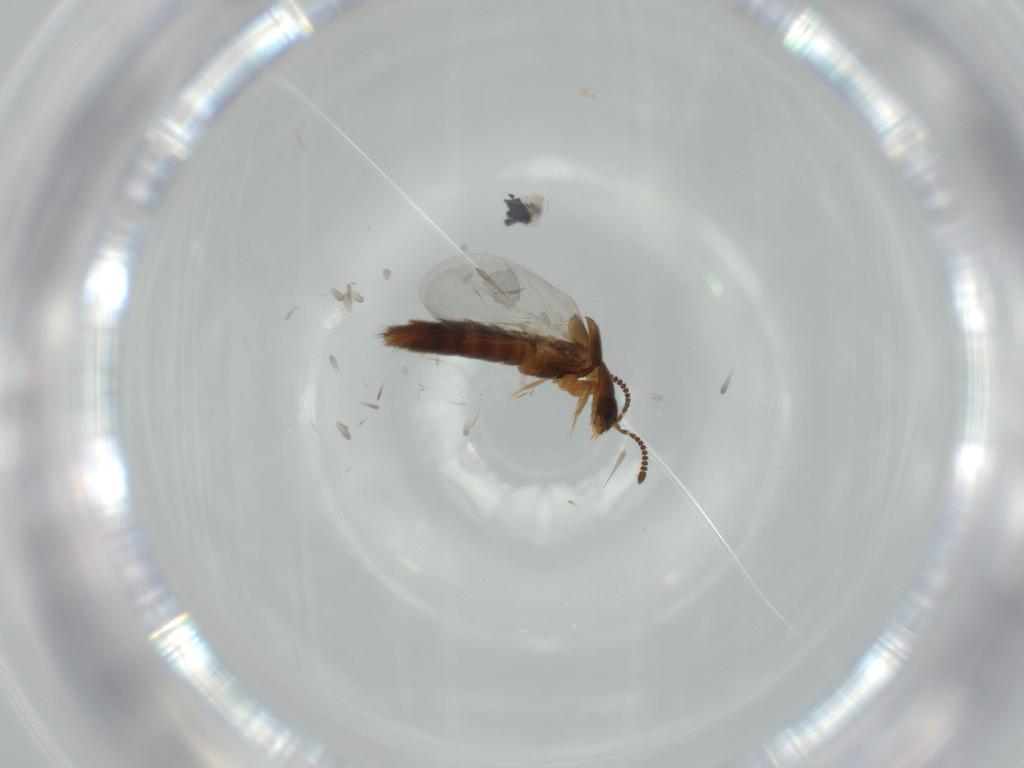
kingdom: Animalia
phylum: Arthropoda
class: Insecta
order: Coleoptera
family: Staphylinidae
